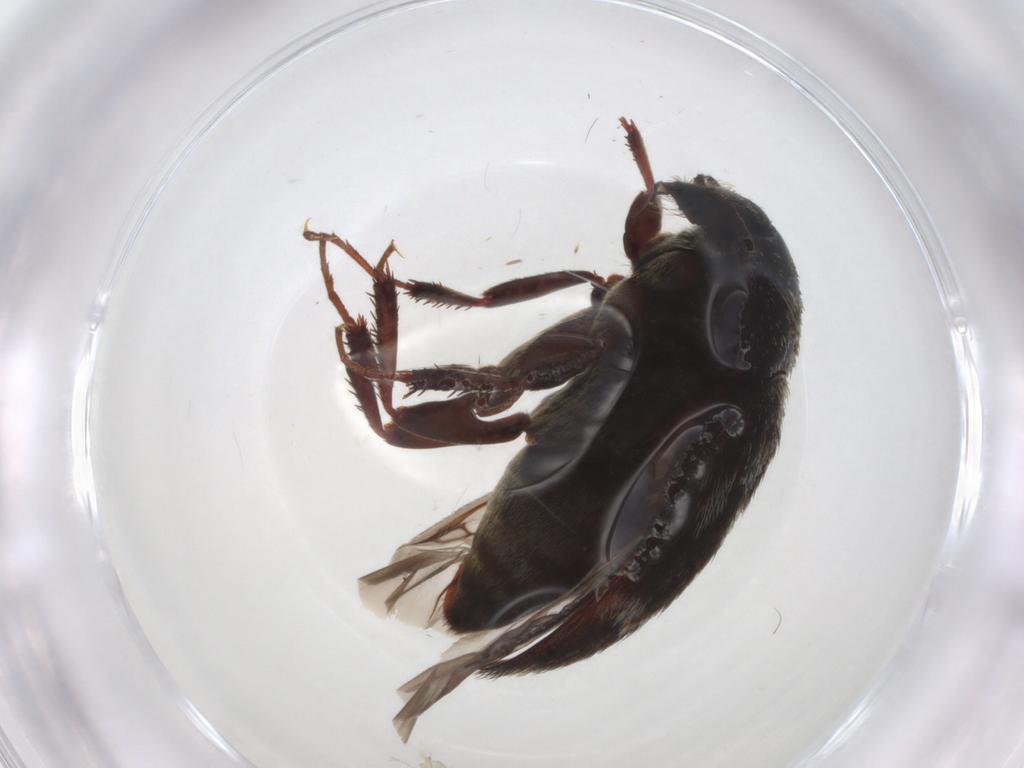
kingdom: Animalia
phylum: Arthropoda
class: Insecta
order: Coleoptera
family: Dermestidae
